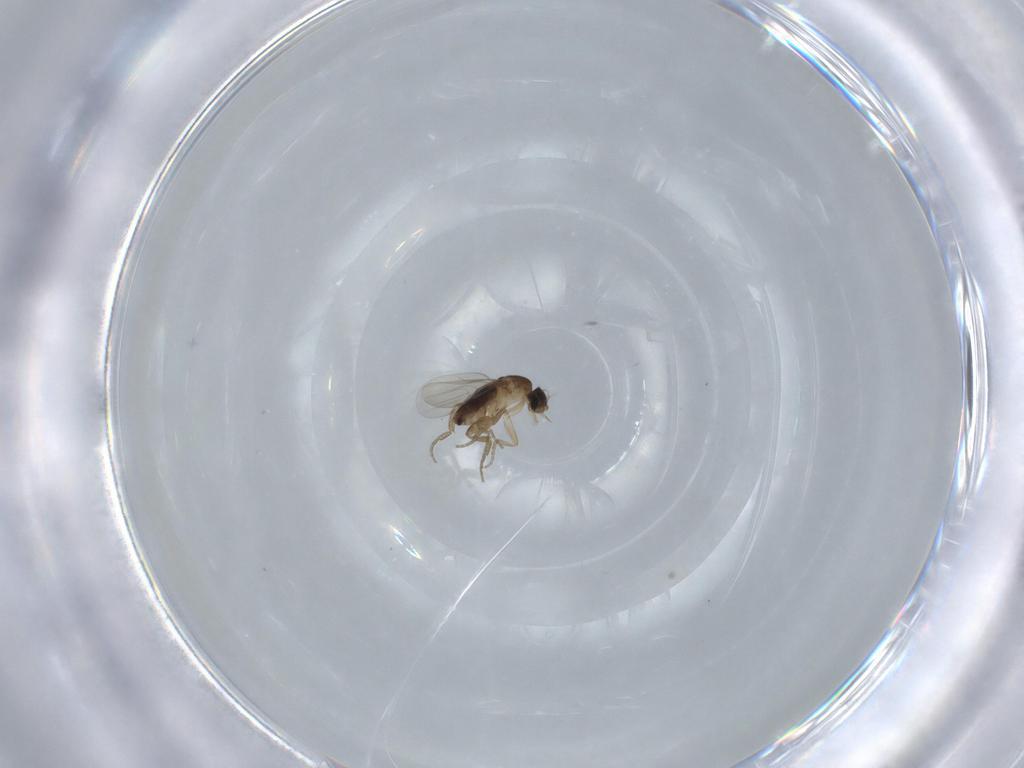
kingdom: Animalia
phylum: Arthropoda
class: Insecta
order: Diptera
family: Phoridae
